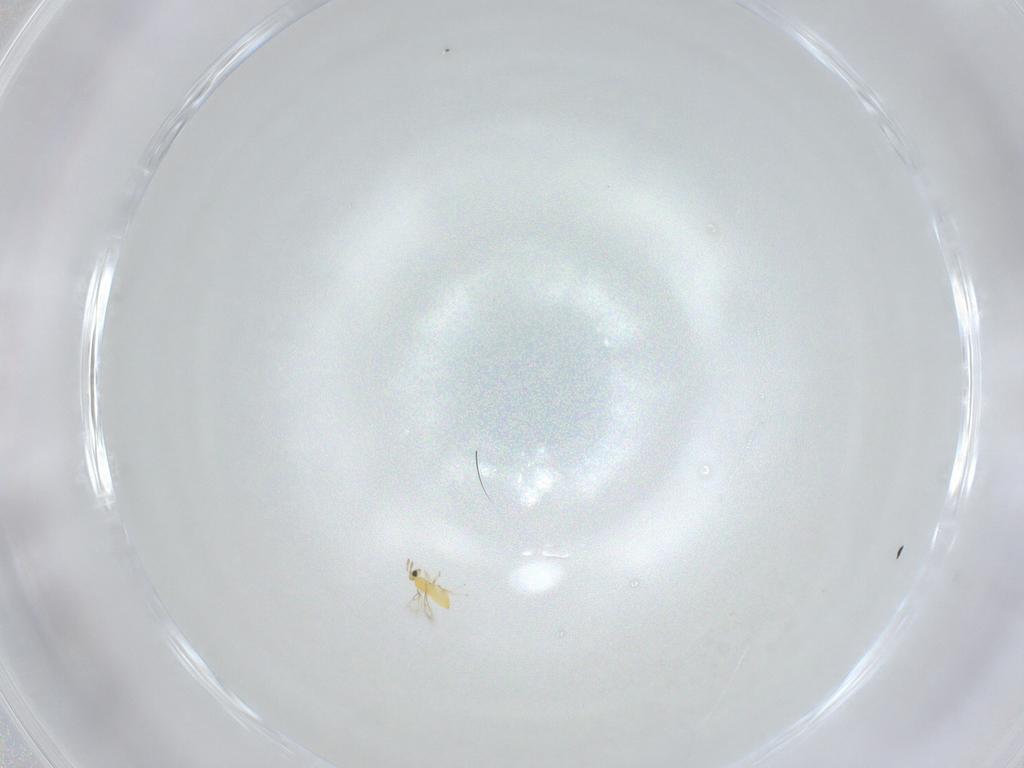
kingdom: Animalia
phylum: Arthropoda
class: Insecta
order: Hymenoptera
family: Trichogrammatidae
